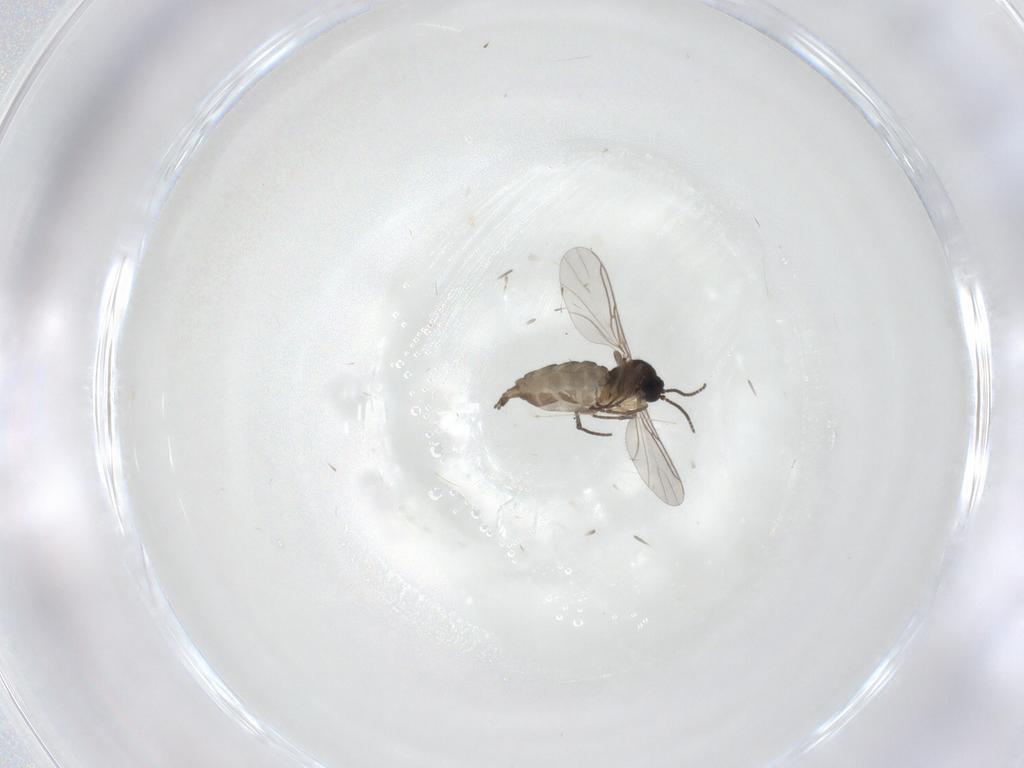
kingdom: Animalia
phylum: Arthropoda
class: Insecta
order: Diptera
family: Sciaridae
